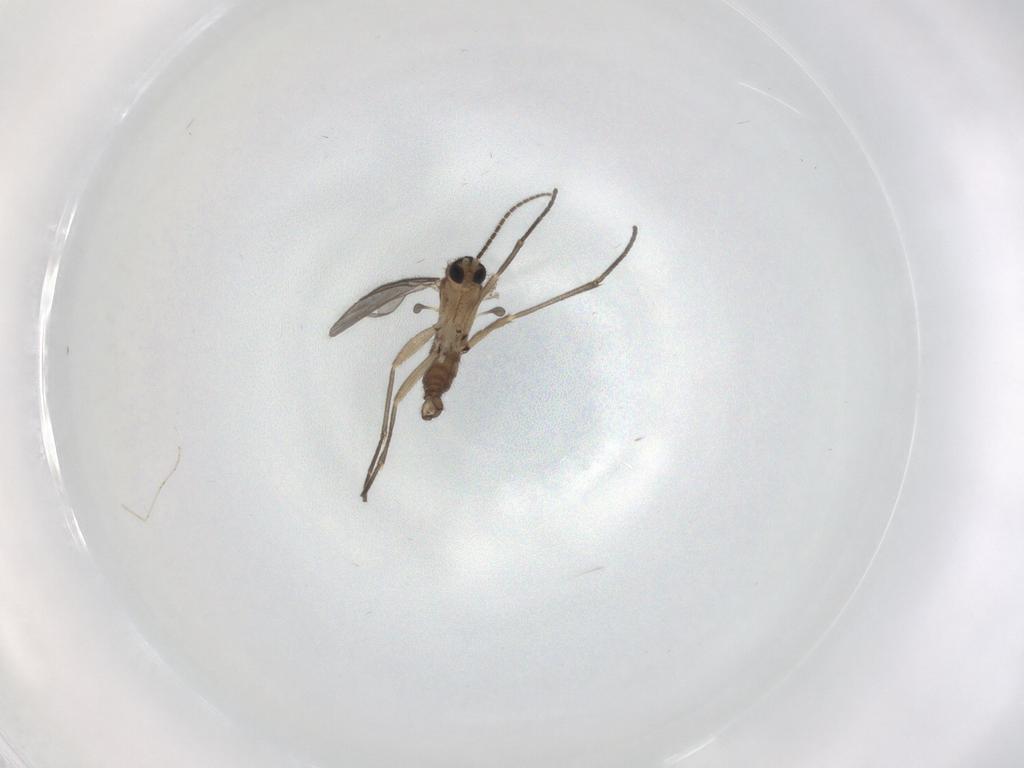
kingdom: Animalia
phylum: Arthropoda
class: Insecta
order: Diptera
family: Sciaridae
